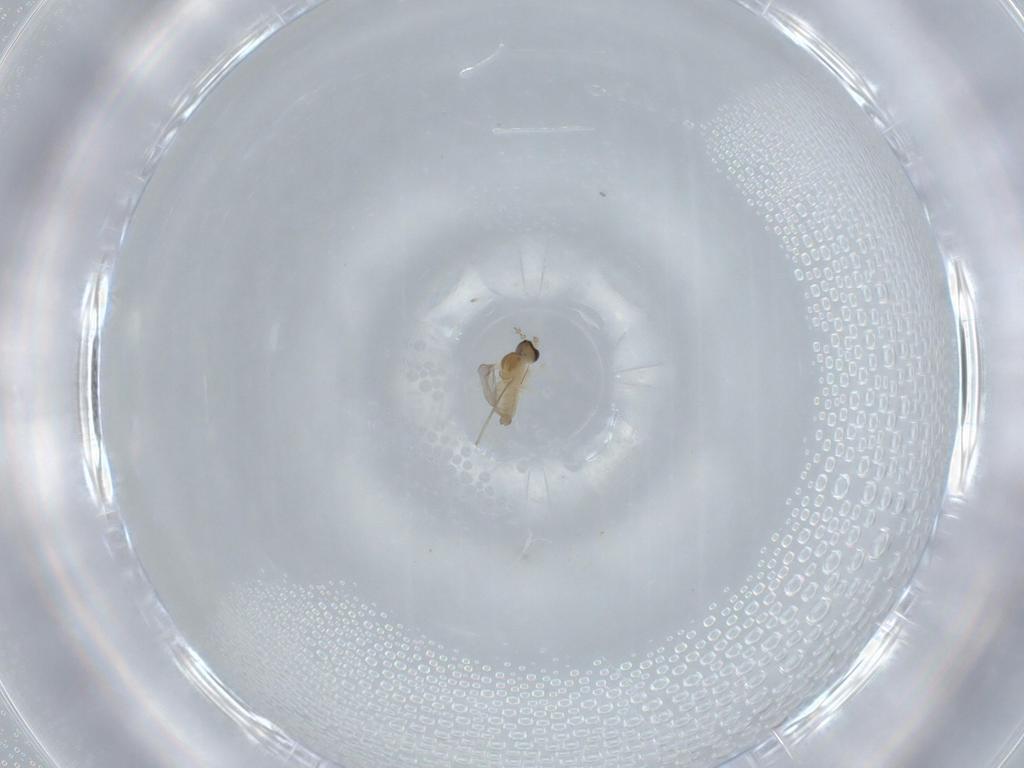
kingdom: Animalia
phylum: Arthropoda
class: Insecta
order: Diptera
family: Cecidomyiidae
